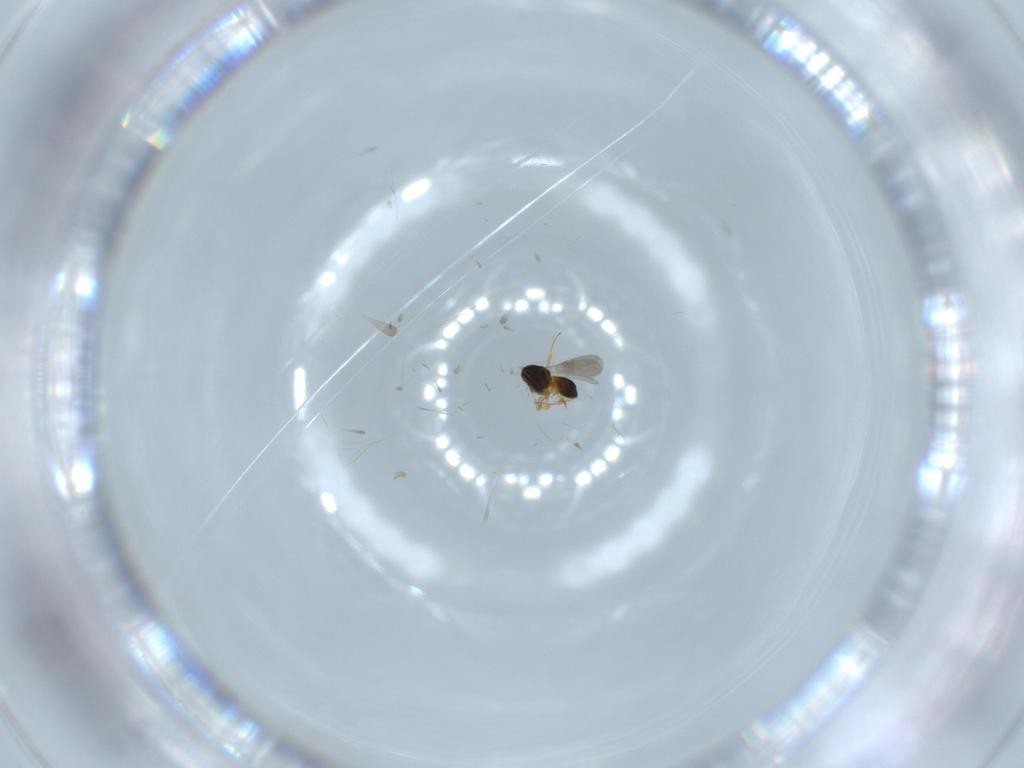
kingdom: Animalia
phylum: Arthropoda
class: Insecta
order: Hymenoptera
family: Scelionidae
